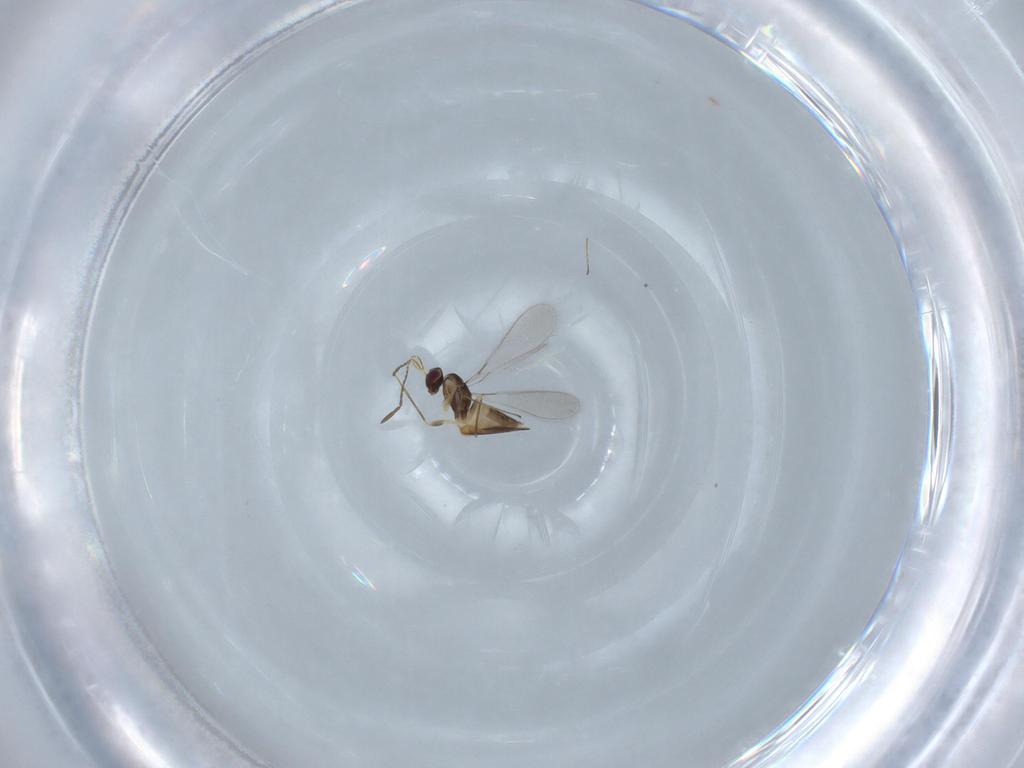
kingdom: Animalia
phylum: Arthropoda
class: Insecta
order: Hymenoptera
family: Mymaridae
